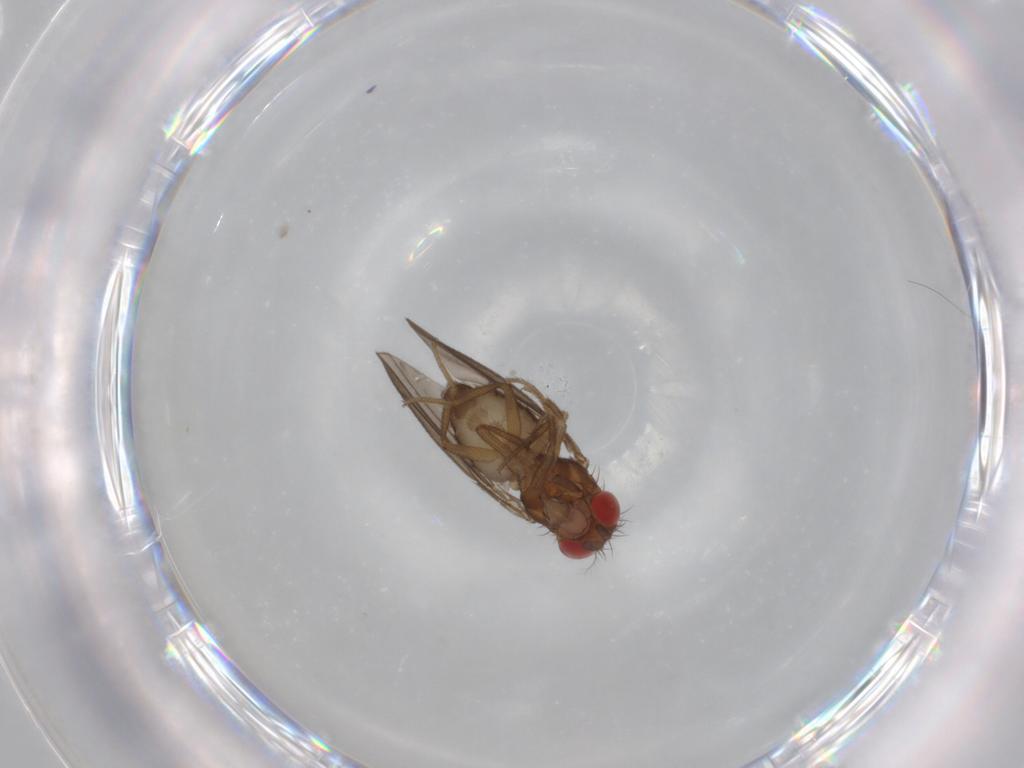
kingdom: Animalia
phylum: Arthropoda
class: Insecta
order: Diptera
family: Drosophilidae
